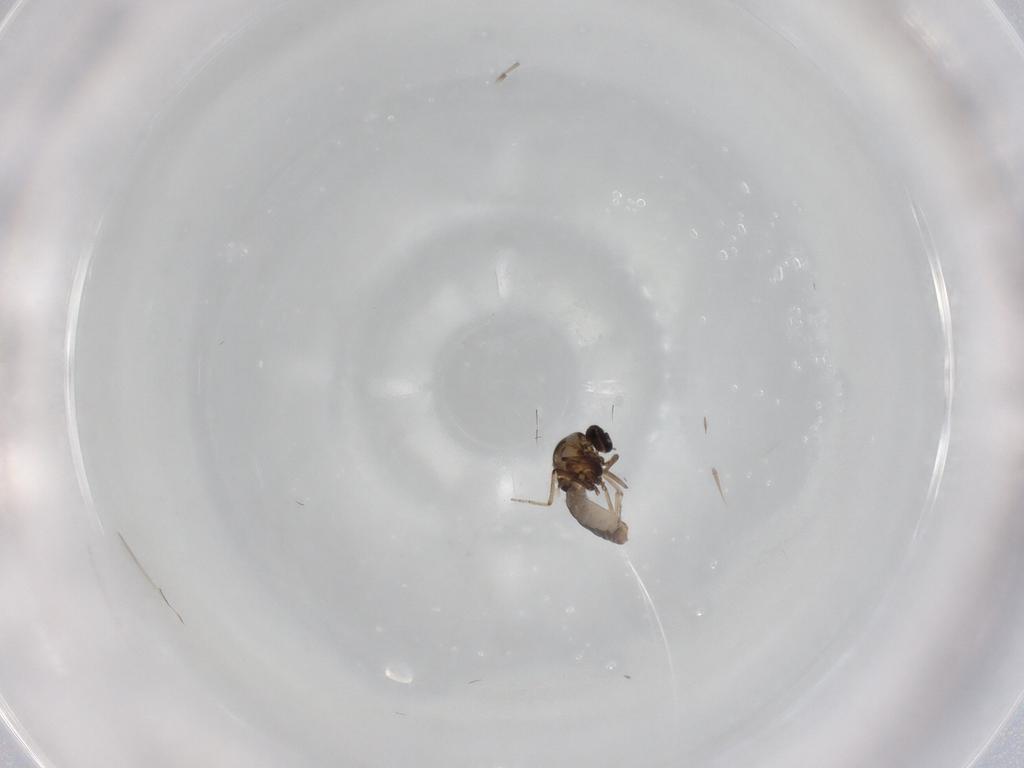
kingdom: Animalia
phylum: Arthropoda
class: Insecta
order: Diptera
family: Ceratopogonidae
